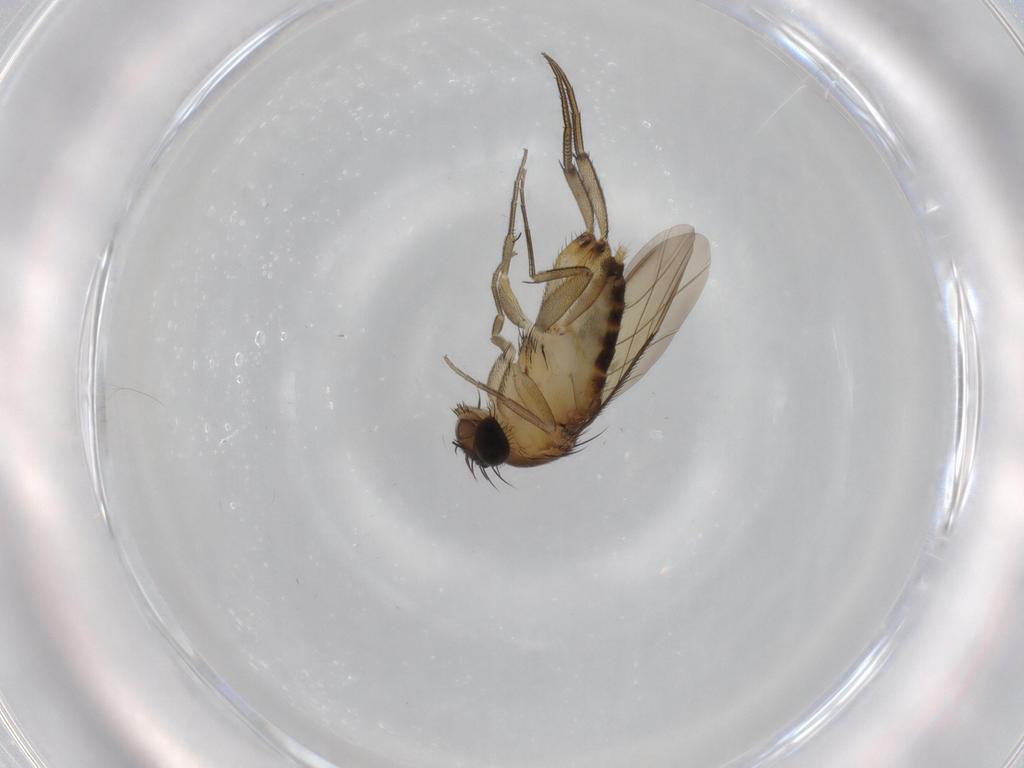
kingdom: Animalia
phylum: Arthropoda
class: Insecta
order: Diptera
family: Phoridae
